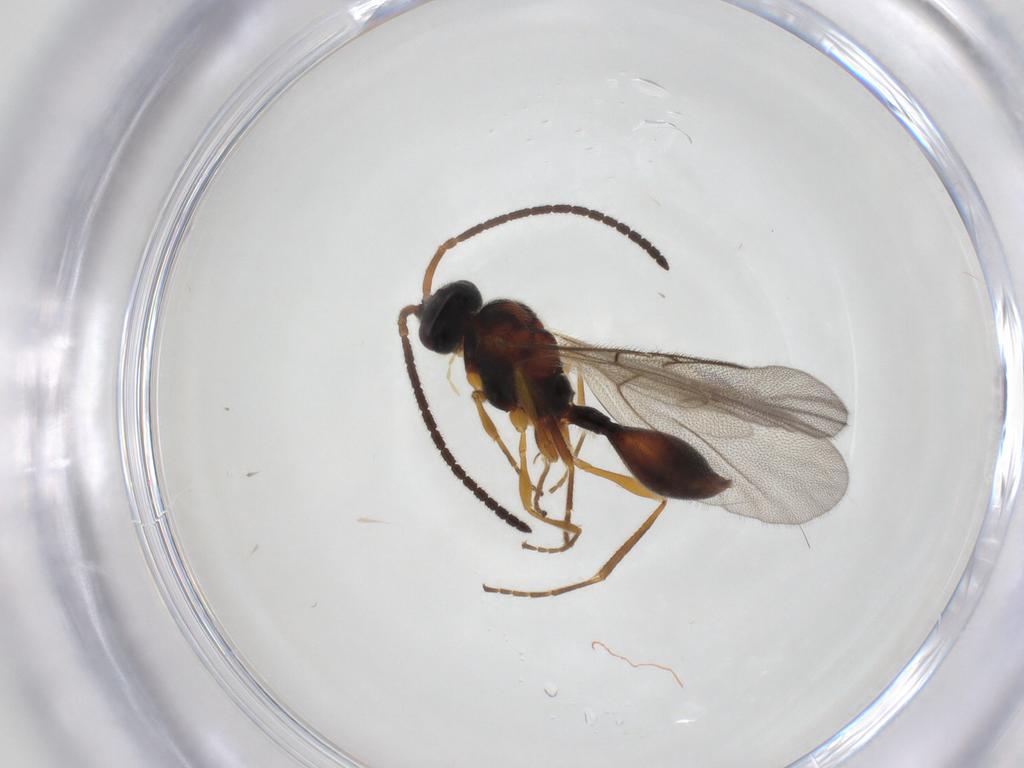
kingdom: Animalia
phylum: Arthropoda
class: Insecta
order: Hymenoptera
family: Diapriidae
